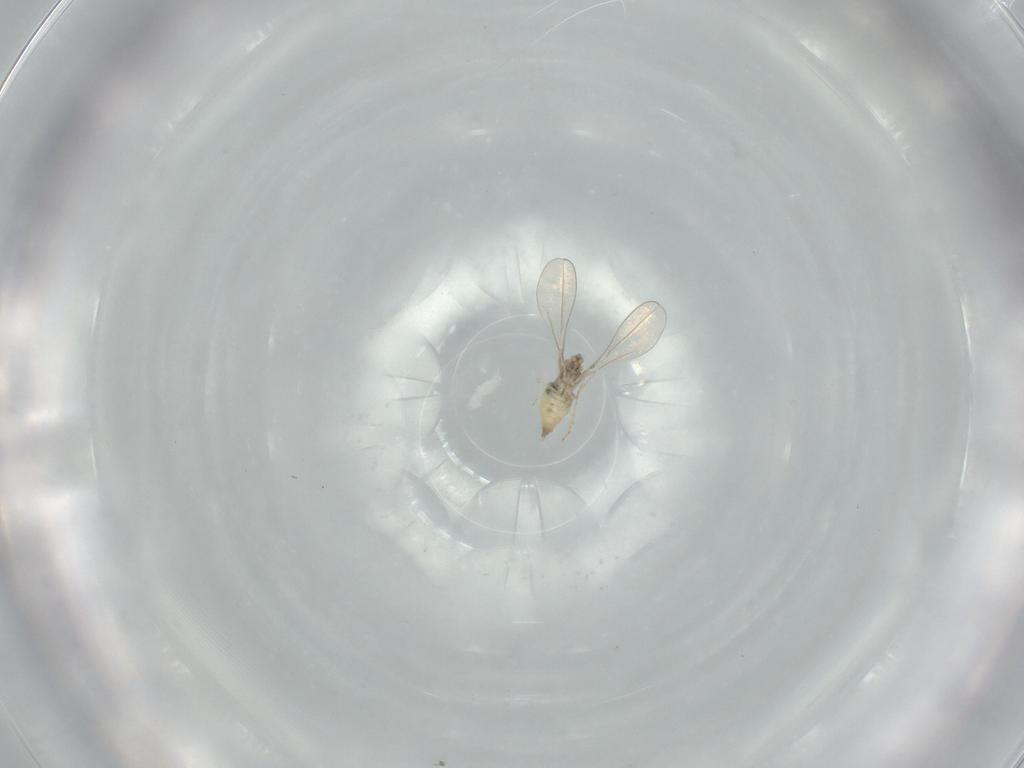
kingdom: Animalia
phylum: Arthropoda
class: Insecta
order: Diptera
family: Cecidomyiidae
